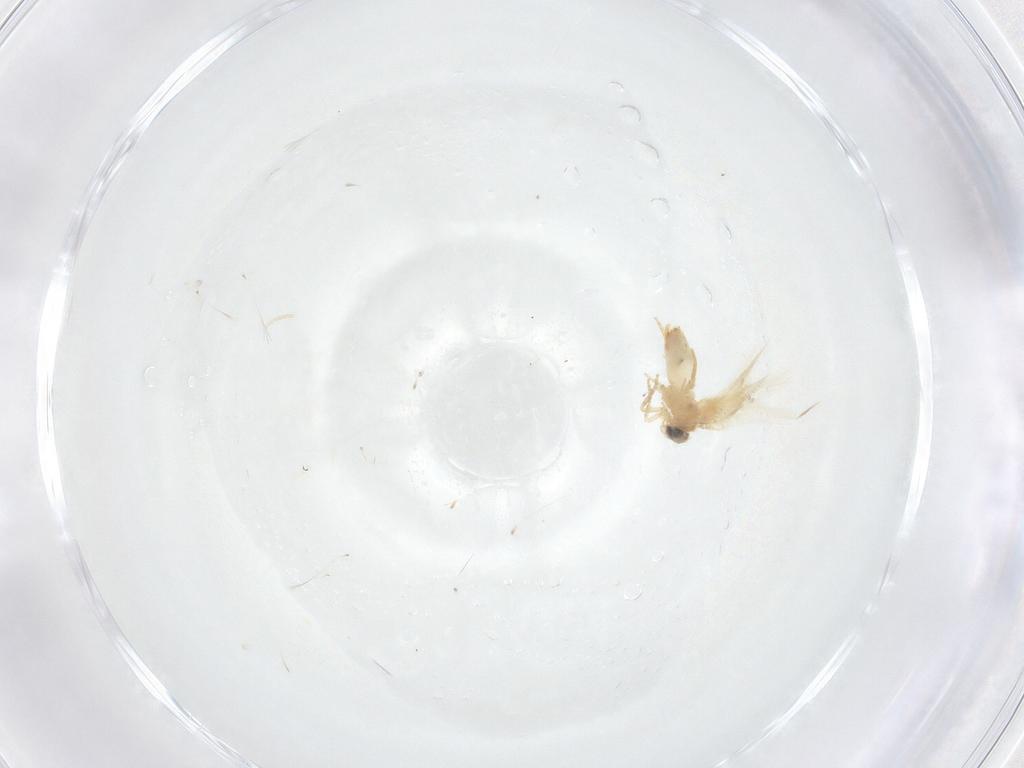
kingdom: Animalia
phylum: Arthropoda
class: Insecta
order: Lepidoptera
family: Crambidae
